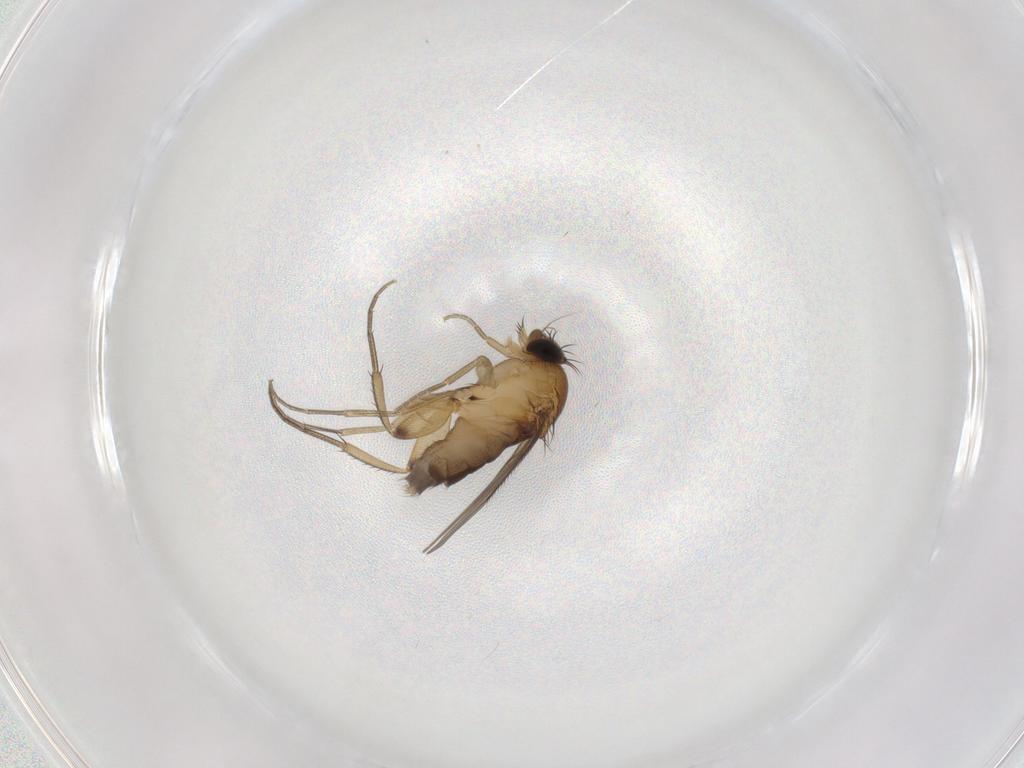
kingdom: Animalia
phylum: Arthropoda
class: Insecta
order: Diptera
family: Phoridae
